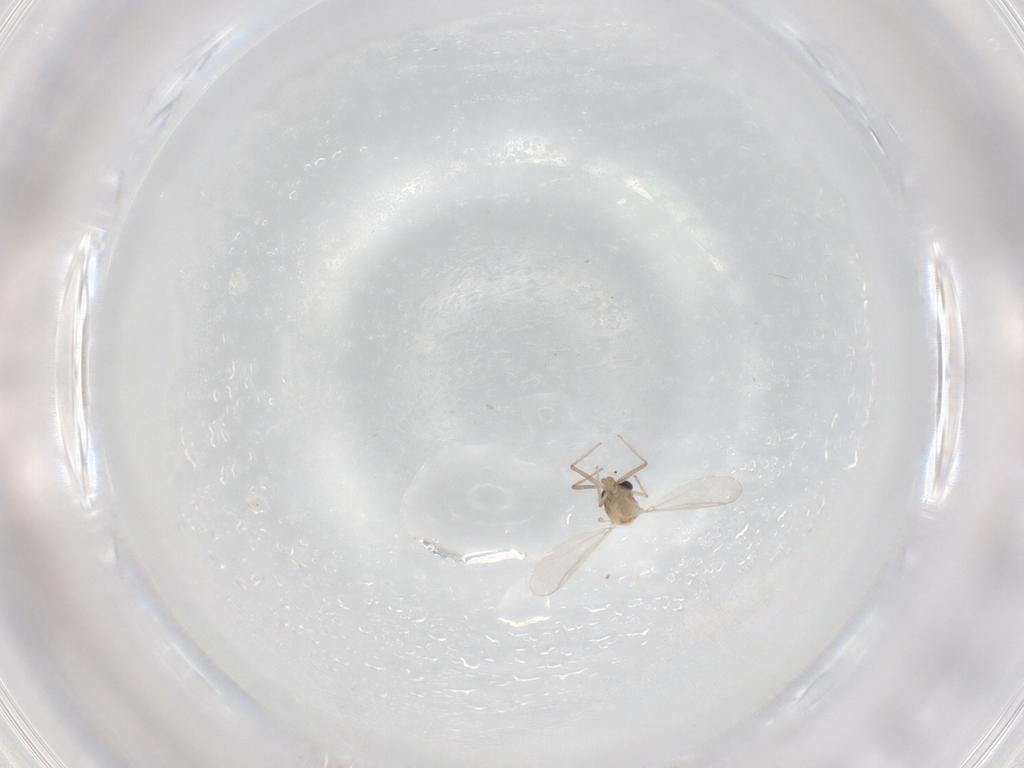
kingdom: Animalia
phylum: Arthropoda
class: Insecta
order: Diptera
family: Chironomidae
